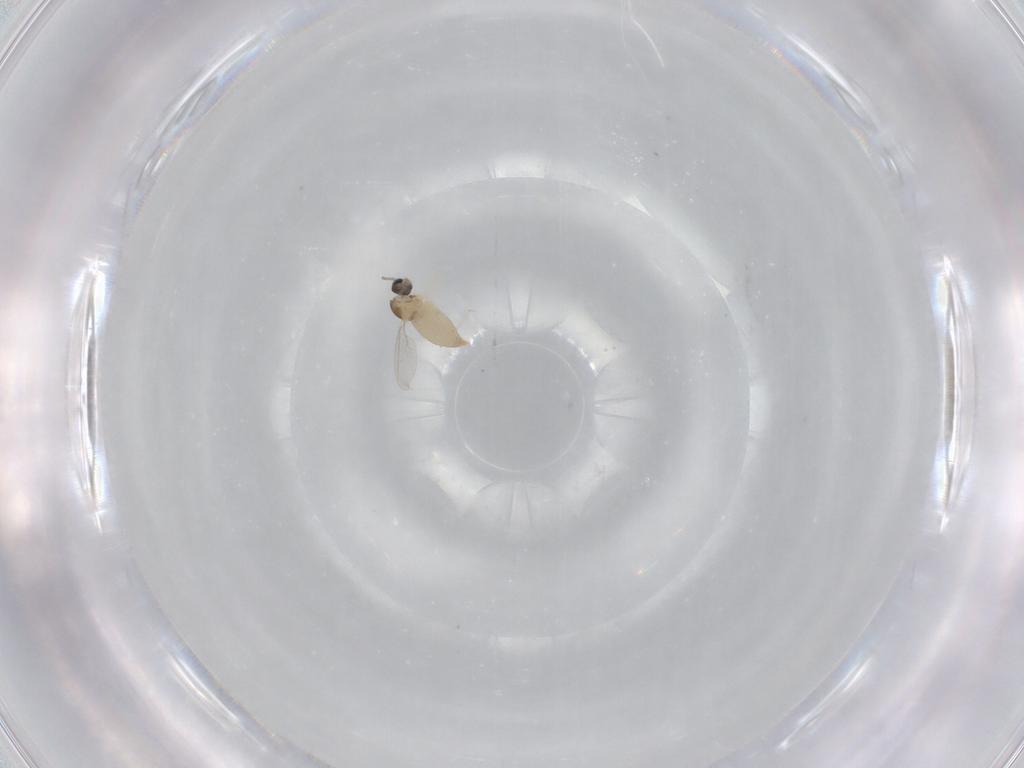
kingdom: Animalia
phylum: Arthropoda
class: Insecta
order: Diptera
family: Cecidomyiidae
